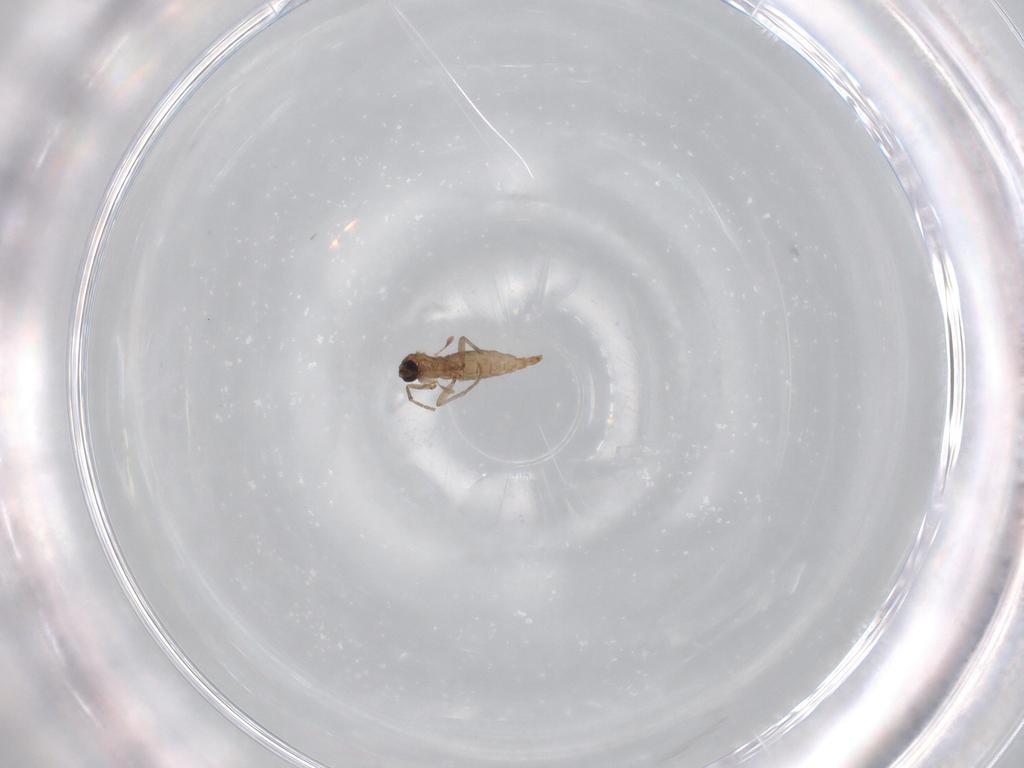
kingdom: Animalia
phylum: Arthropoda
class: Insecta
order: Diptera
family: Sciaridae
